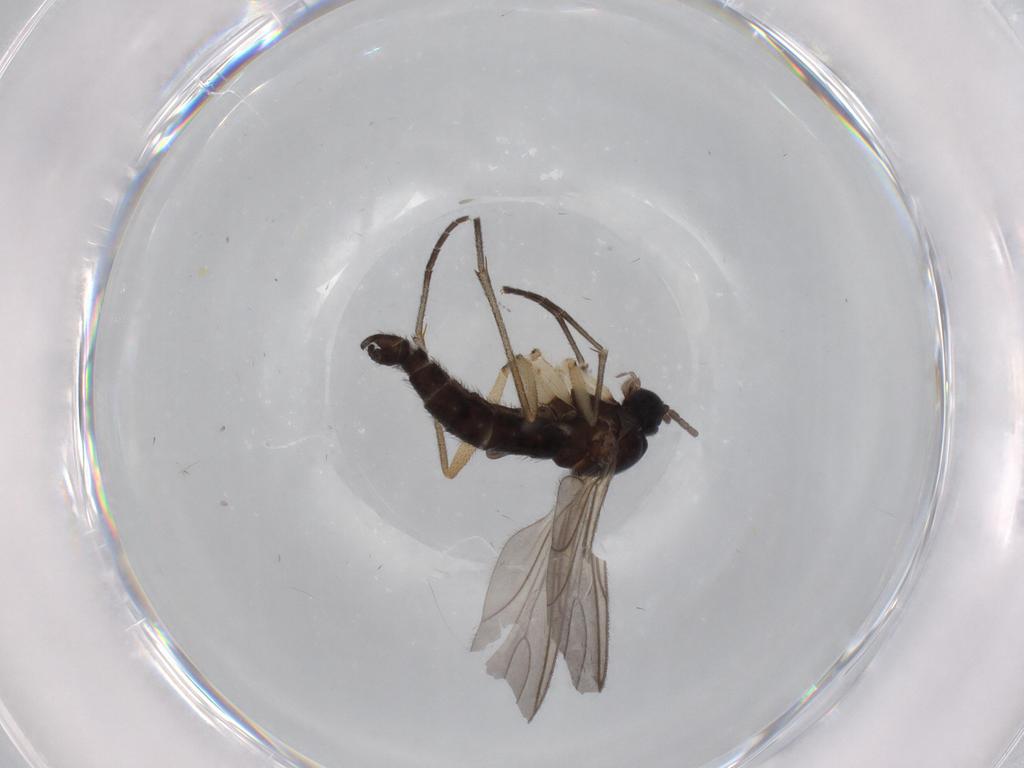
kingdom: Animalia
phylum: Arthropoda
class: Insecta
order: Diptera
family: Sciaridae
